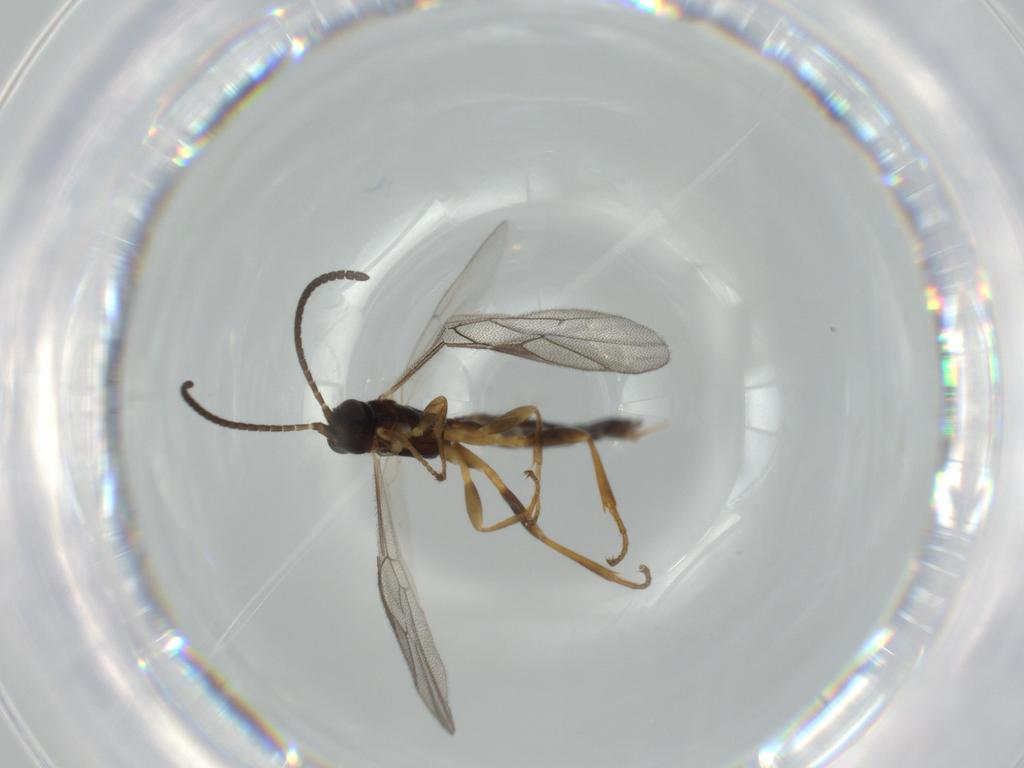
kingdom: Animalia
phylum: Arthropoda
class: Insecta
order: Hymenoptera
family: Ichneumonidae
